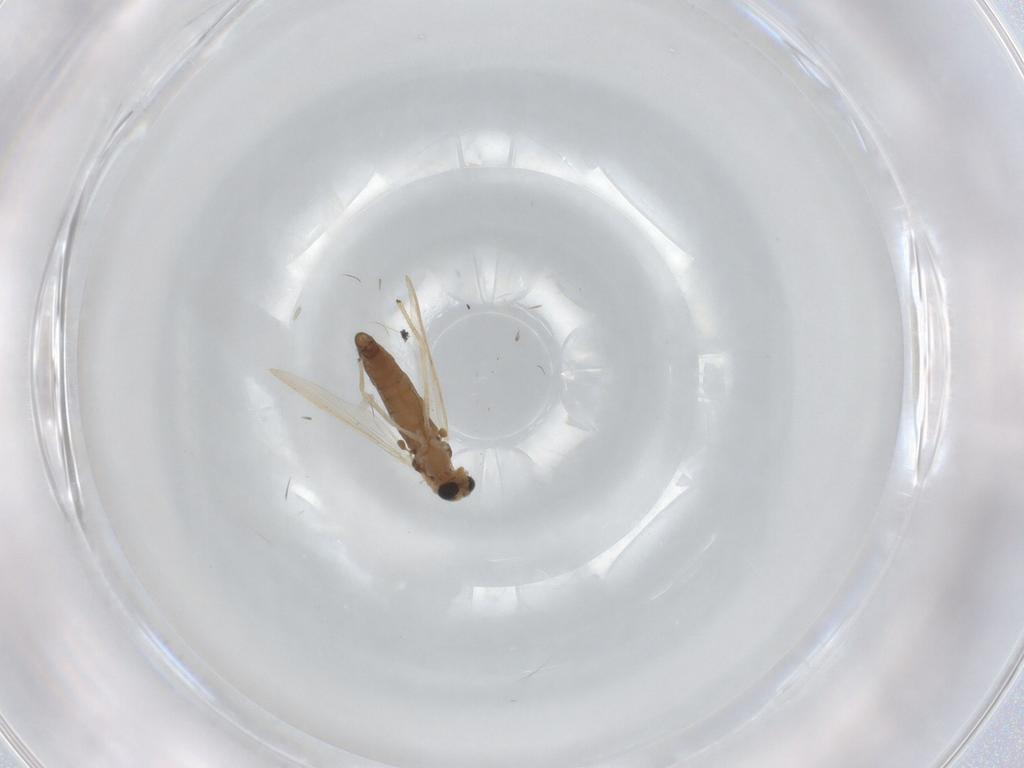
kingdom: Animalia
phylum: Arthropoda
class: Insecta
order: Diptera
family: Chironomidae
